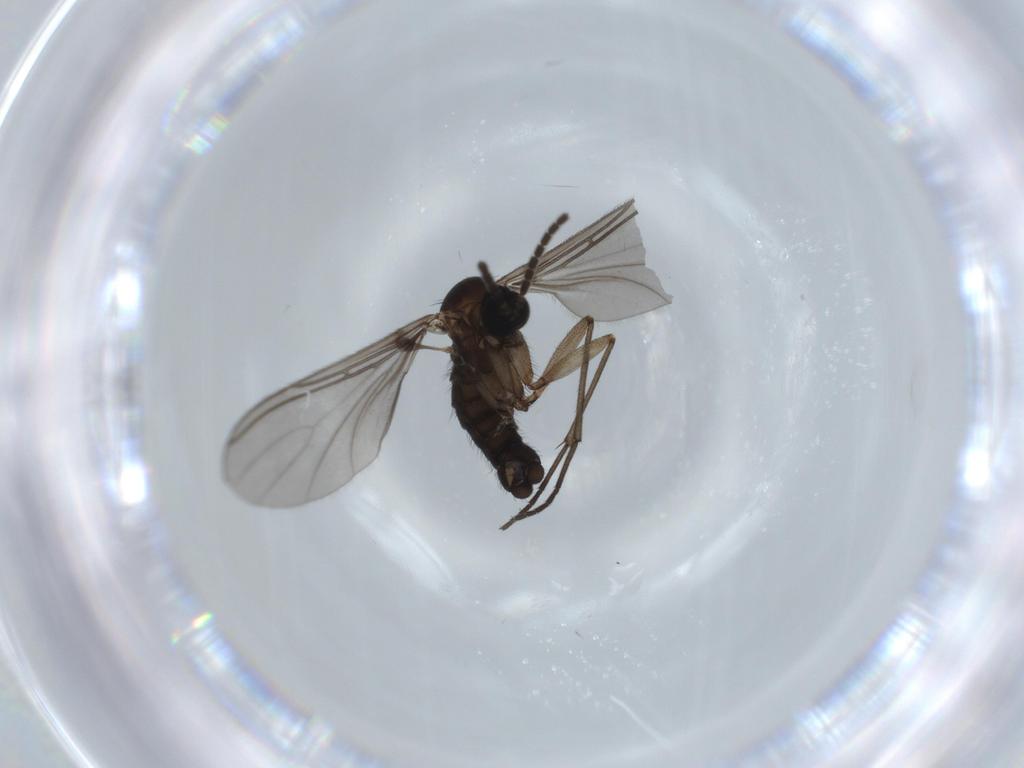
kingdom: Animalia
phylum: Arthropoda
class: Insecta
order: Diptera
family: Sciaridae
